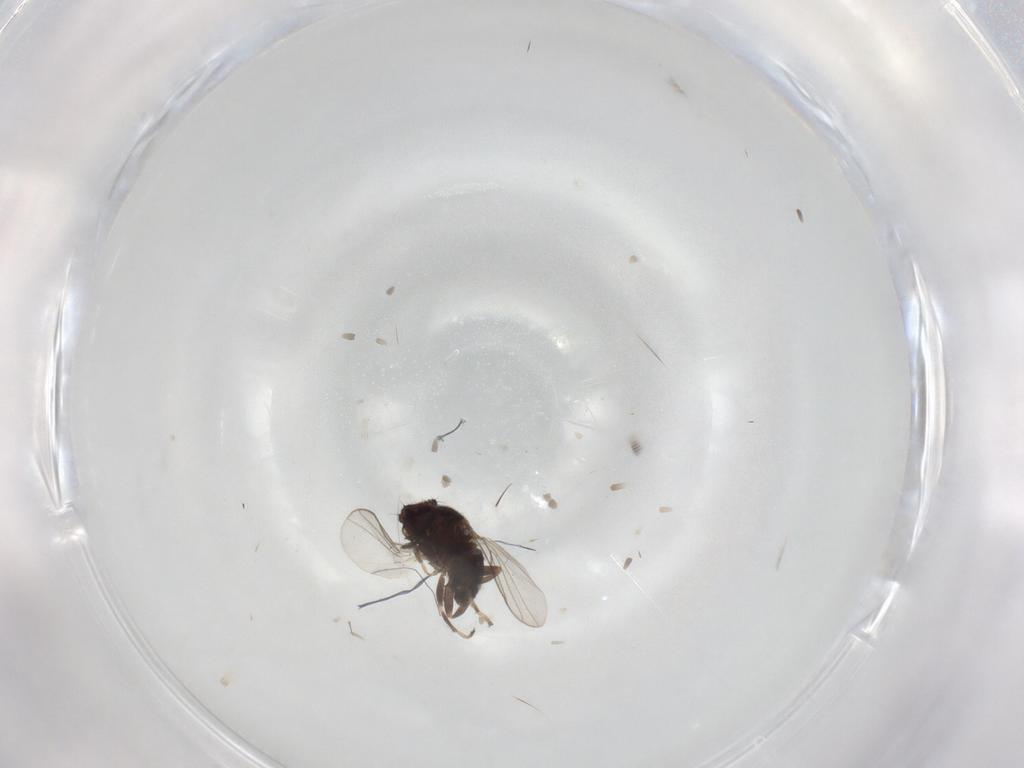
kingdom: Animalia
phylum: Arthropoda
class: Insecta
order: Diptera
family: Chloropidae
